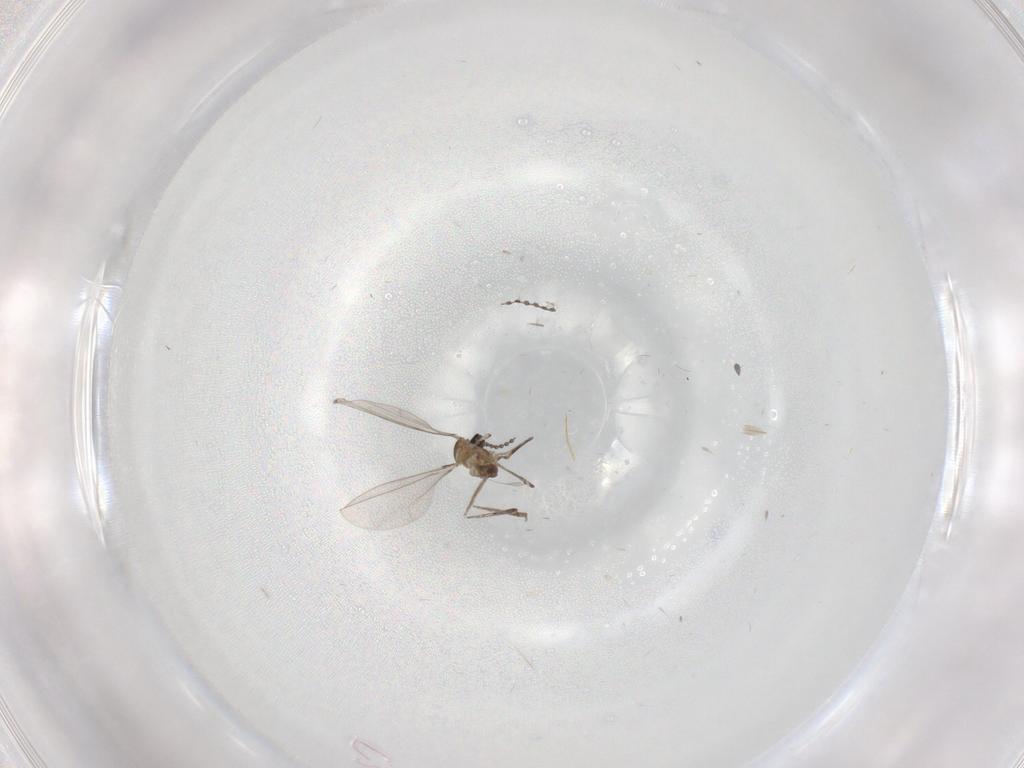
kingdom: Animalia
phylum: Arthropoda
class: Insecta
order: Diptera
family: Cecidomyiidae
